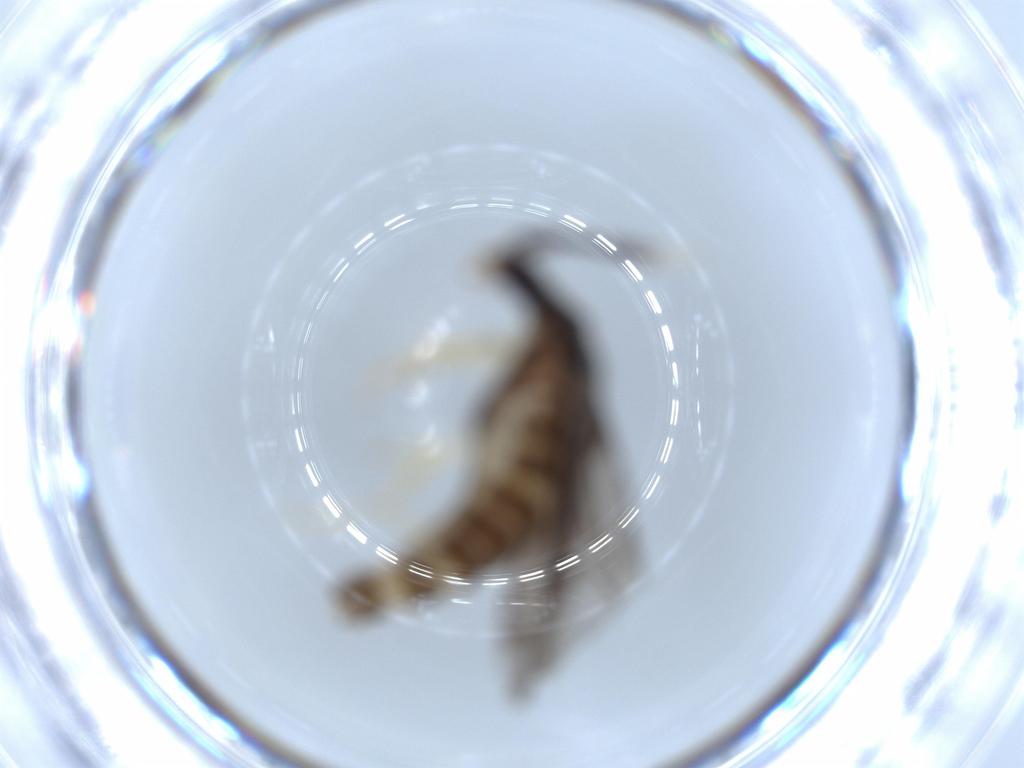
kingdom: Animalia
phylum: Arthropoda
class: Insecta
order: Coleoptera
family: Cantharidae
